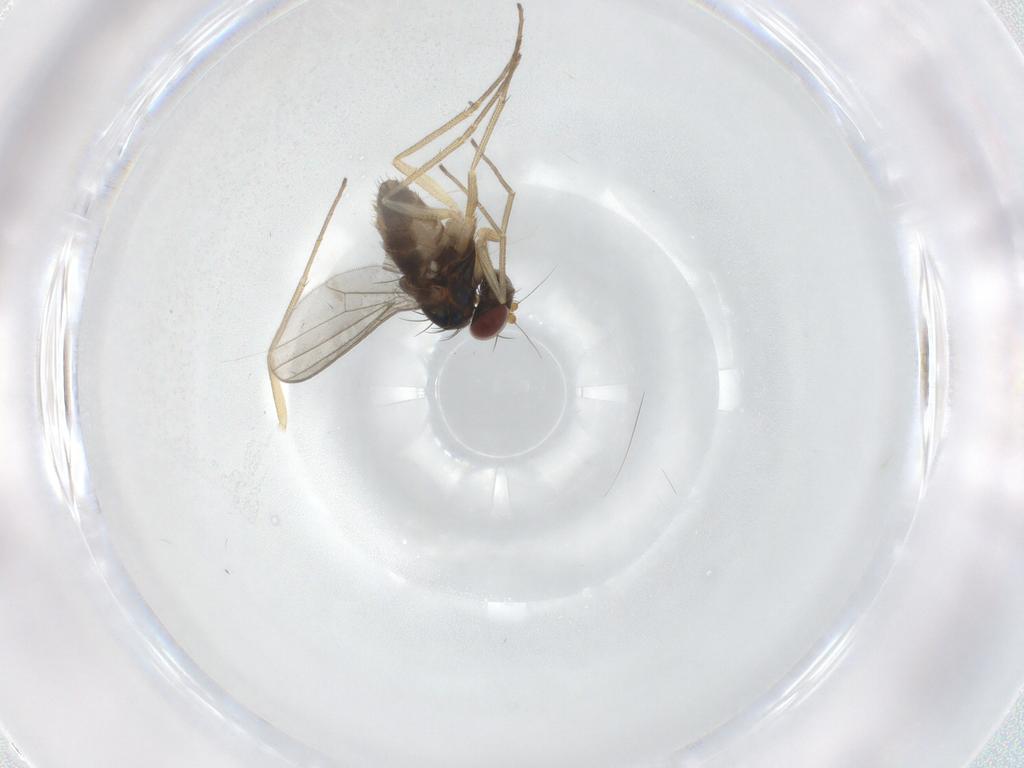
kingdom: Animalia
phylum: Arthropoda
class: Insecta
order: Diptera
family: Dolichopodidae
